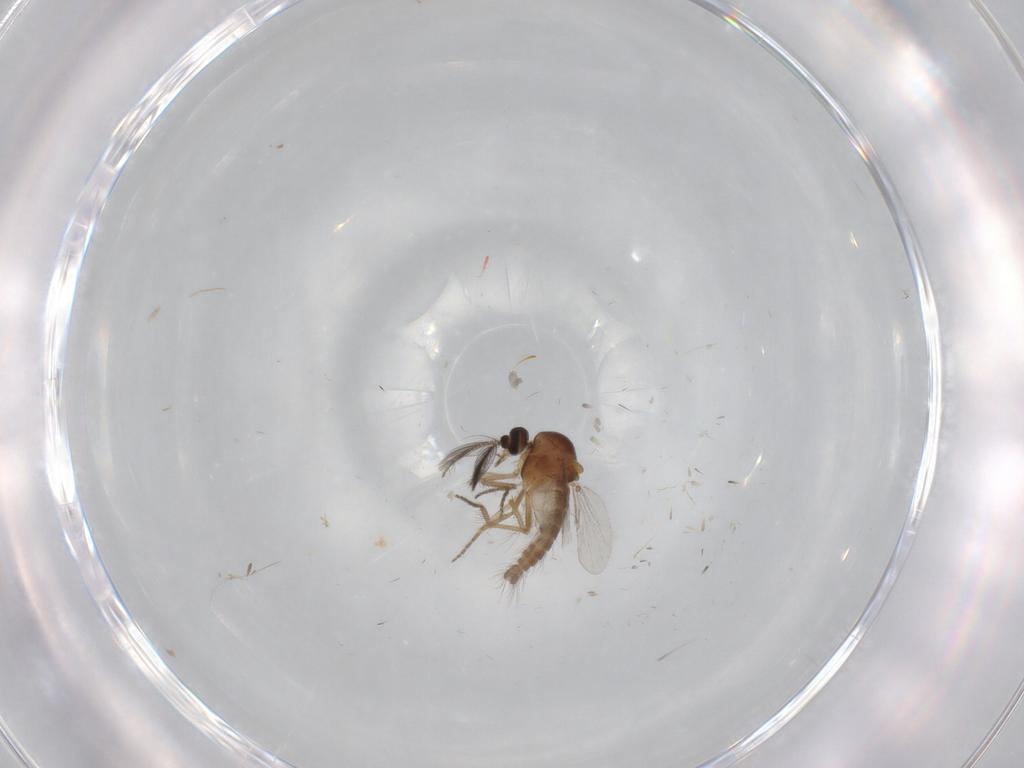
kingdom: Animalia
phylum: Arthropoda
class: Insecta
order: Diptera
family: Ceratopogonidae
